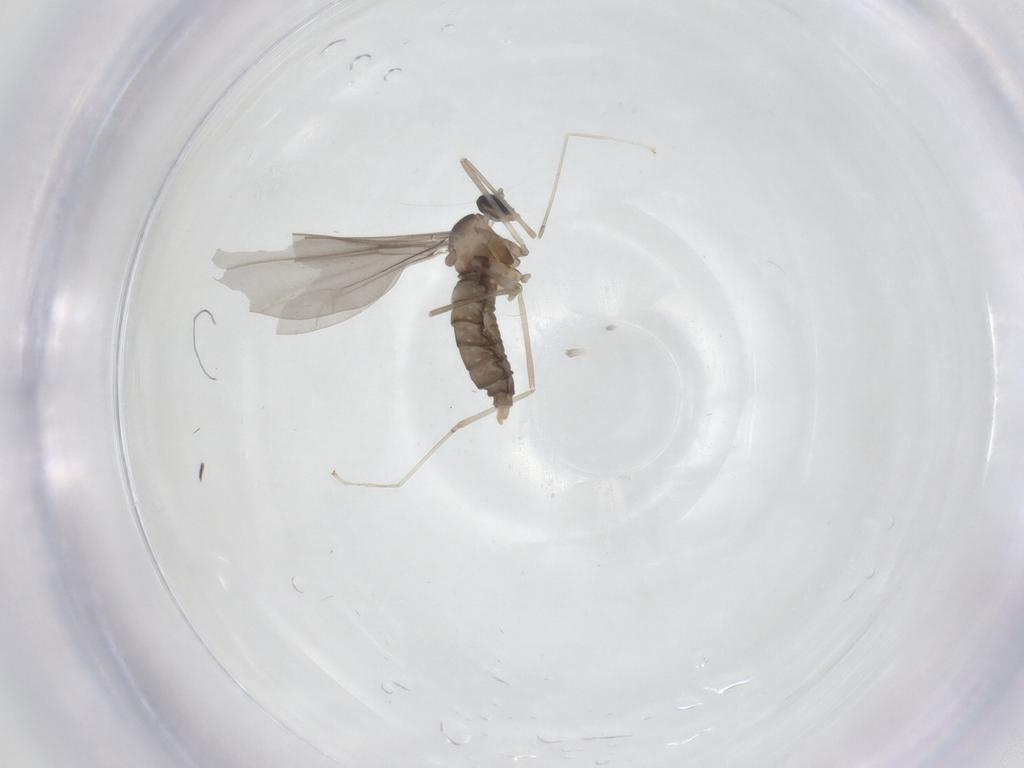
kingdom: Animalia
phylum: Arthropoda
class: Insecta
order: Diptera
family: Cecidomyiidae
